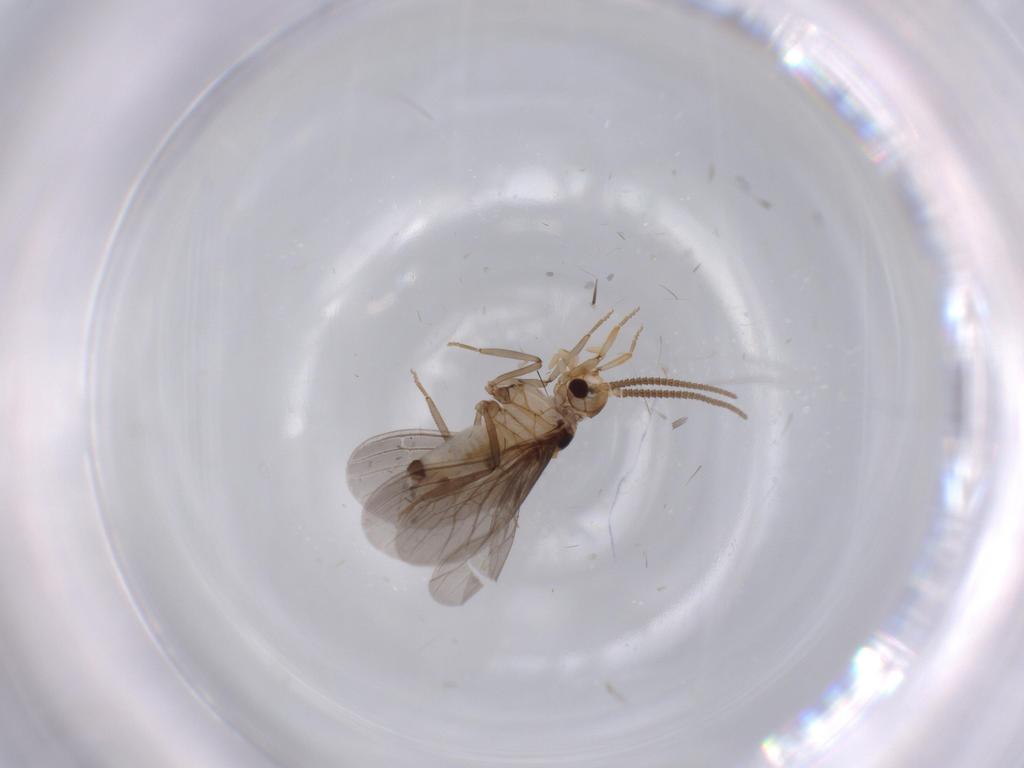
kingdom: Animalia
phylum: Arthropoda
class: Insecta
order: Neuroptera
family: Coniopterygidae
